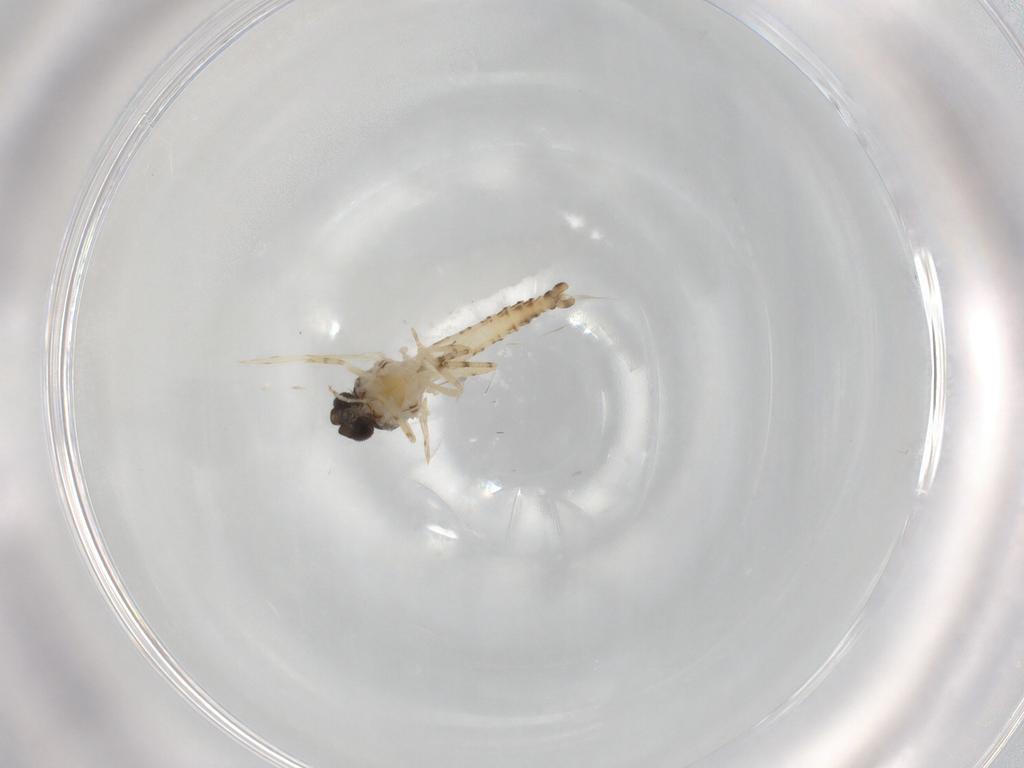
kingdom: Animalia
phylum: Arthropoda
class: Insecta
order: Diptera
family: Ceratopogonidae
